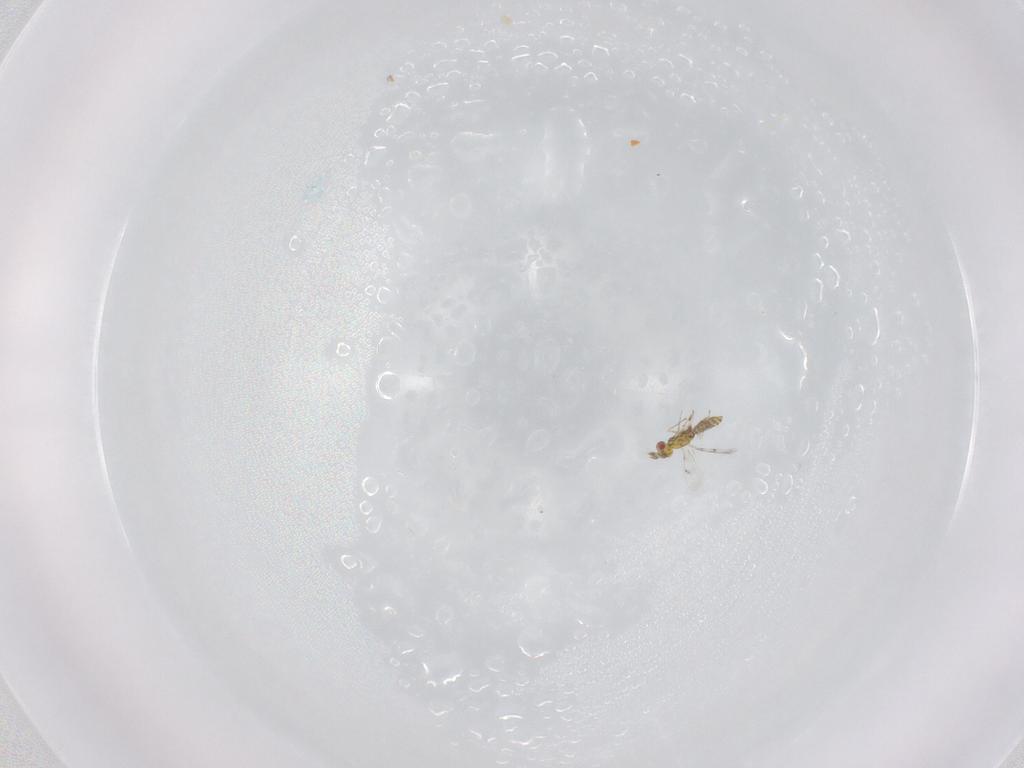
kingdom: Animalia
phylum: Arthropoda
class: Insecta
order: Hymenoptera
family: Eulophidae
